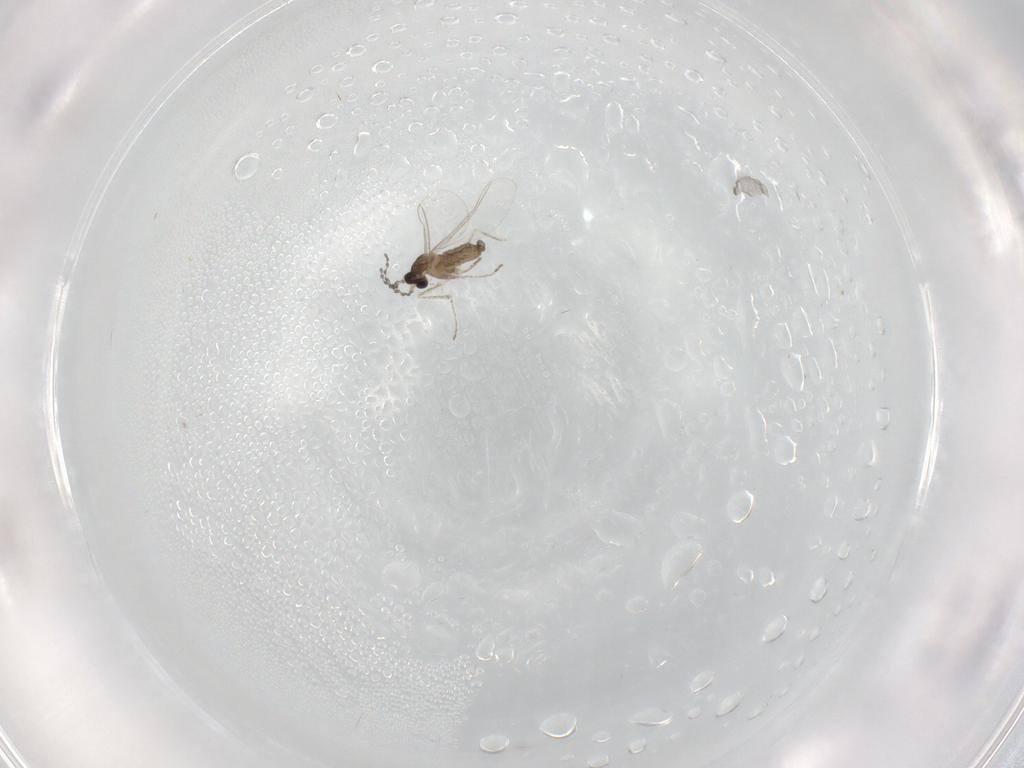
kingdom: Animalia
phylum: Arthropoda
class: Insecta
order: Diptera
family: Cecidomyiidae
